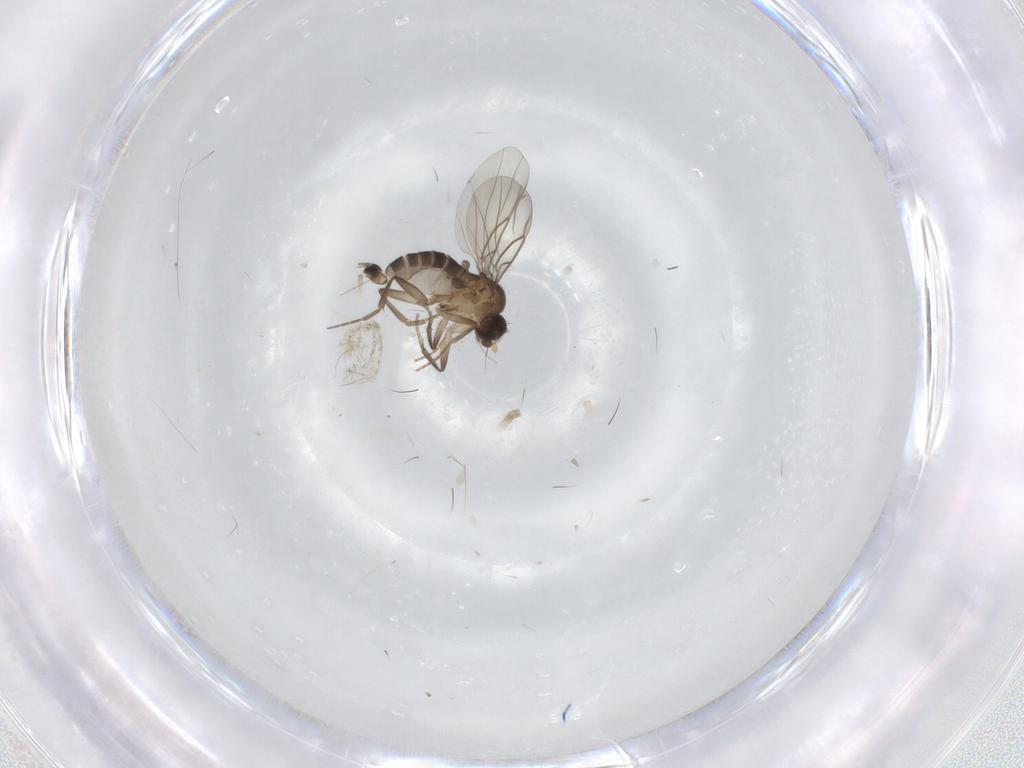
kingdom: Animalia
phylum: Arthropoda
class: Insecta
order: Diptera
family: Phoridae
